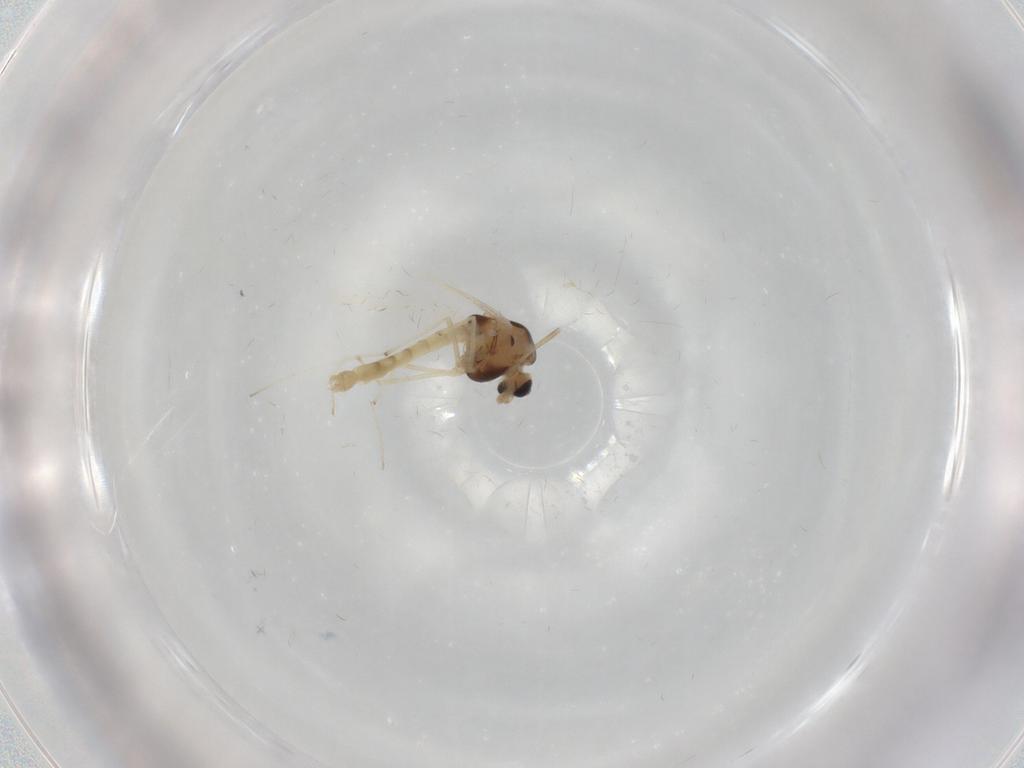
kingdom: Animalia
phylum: Arthropoda
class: Insecta
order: Diptera
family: Chironomidae
